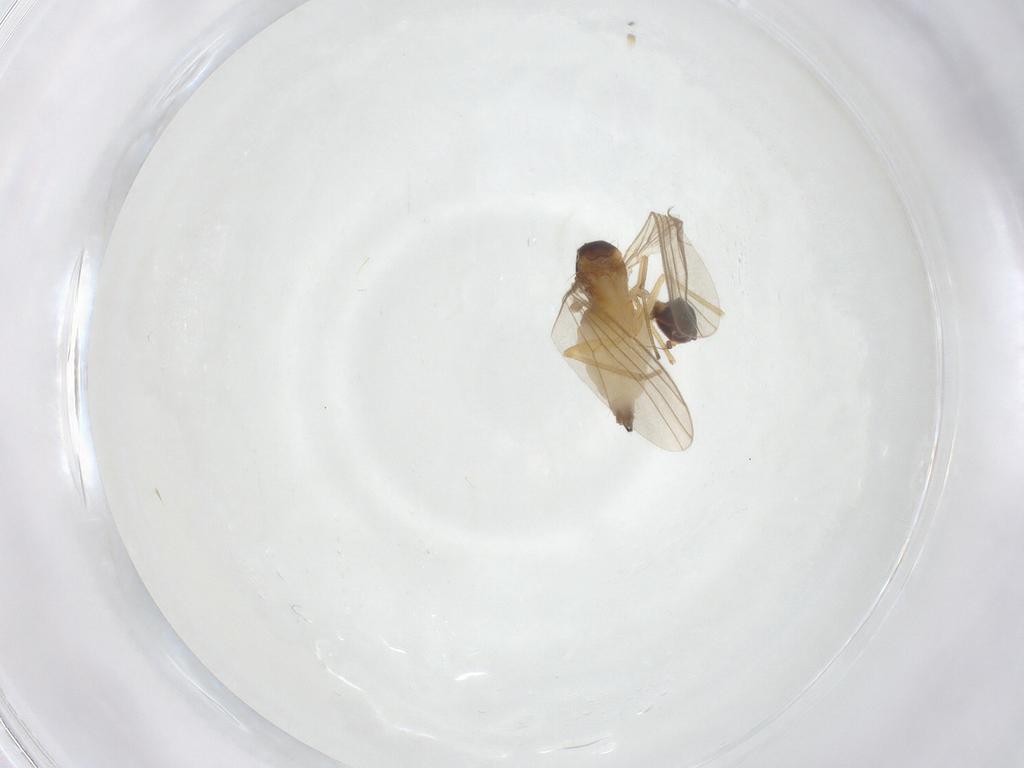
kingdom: Animalia
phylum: Arthropoda
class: Insecta
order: Diptera
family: Dolichopodidae
